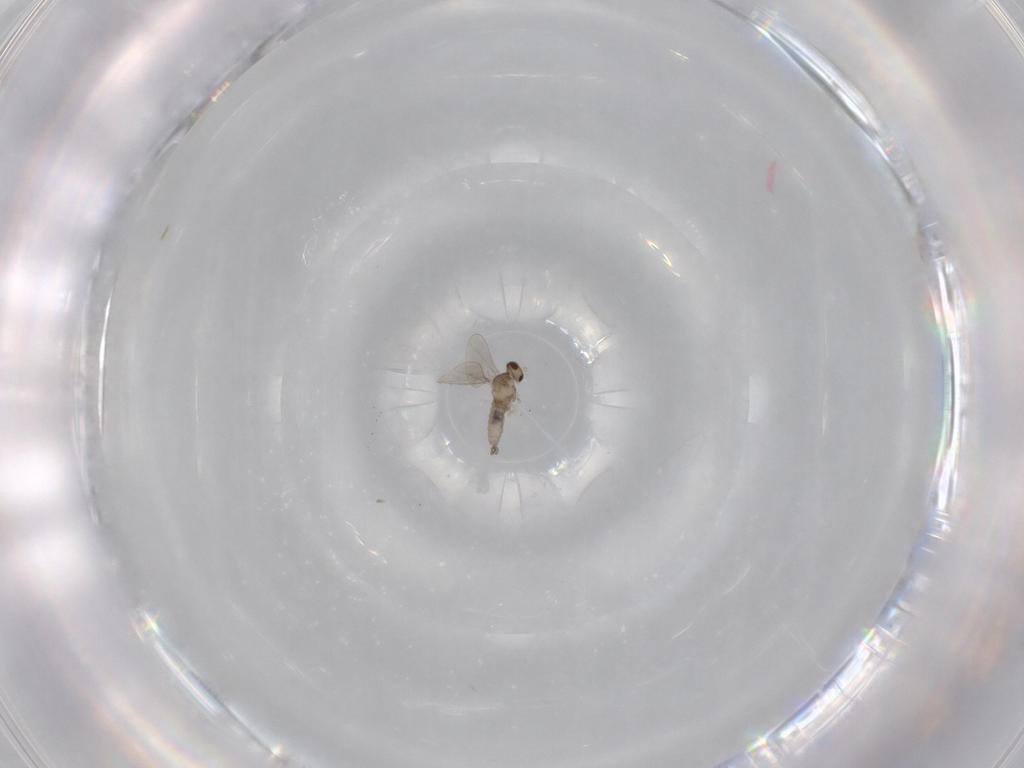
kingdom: Animalia
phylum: Arthropoda
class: Insecta
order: Diptera
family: Cecidomyiidae
